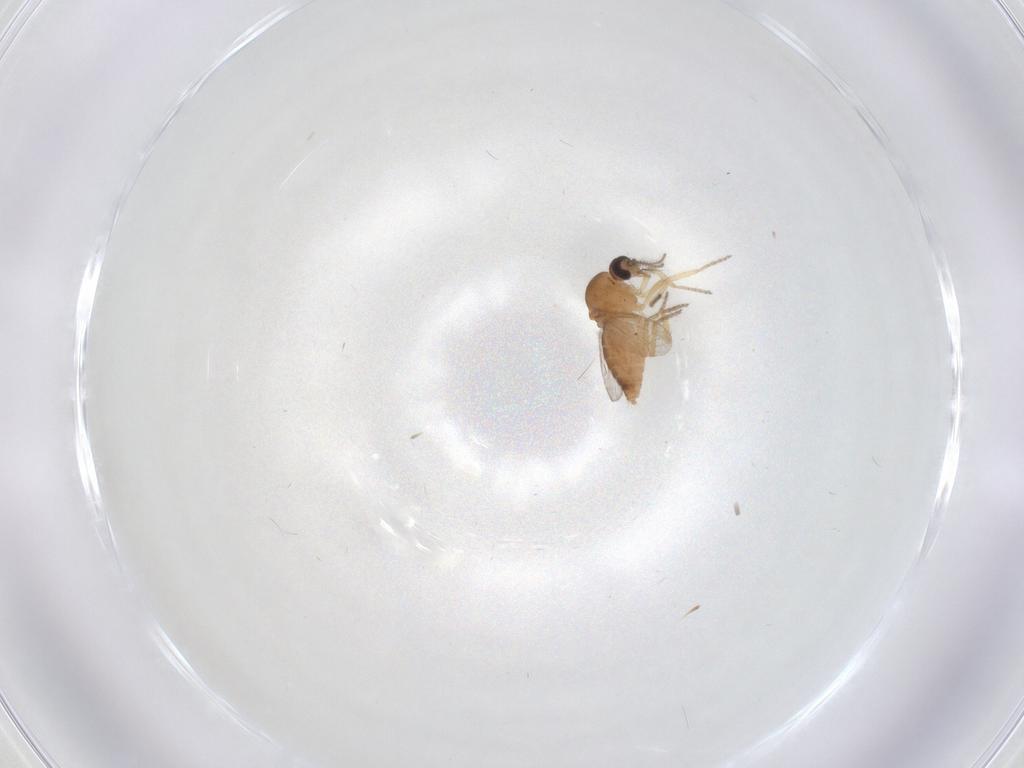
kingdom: Animalia
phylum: Arthropoda
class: Insecta
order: Diptera
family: Ceratopogonidae
